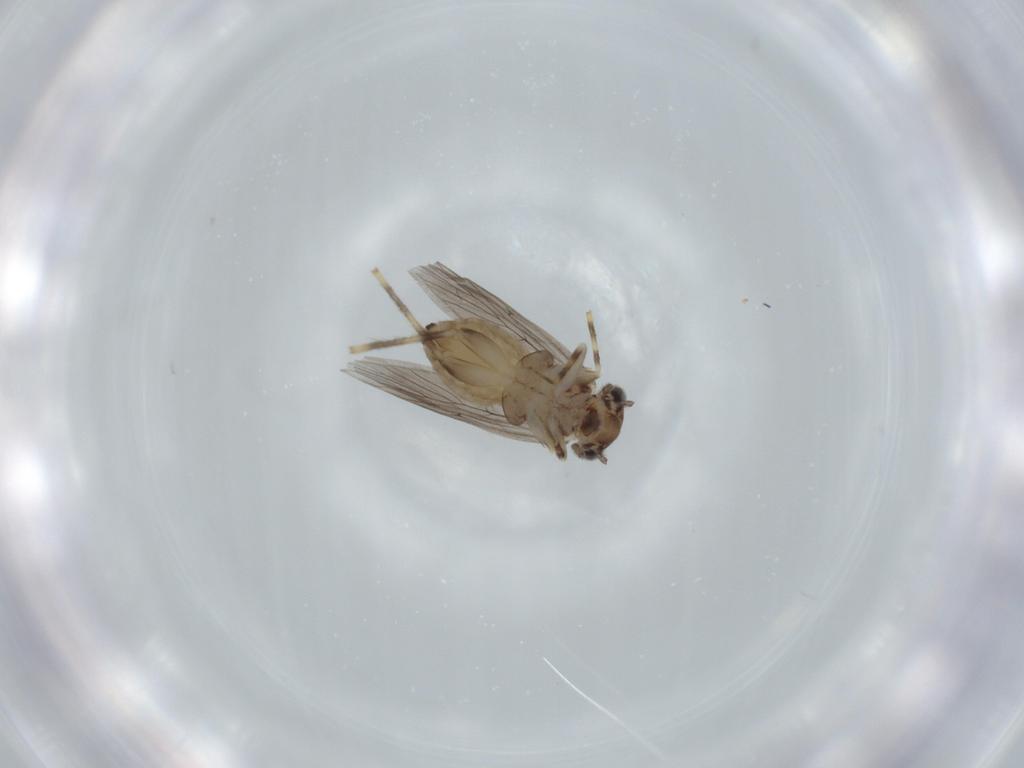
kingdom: Animalia
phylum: Arthropoda
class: Insecta
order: Psocodea
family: Lepidopsocidae
